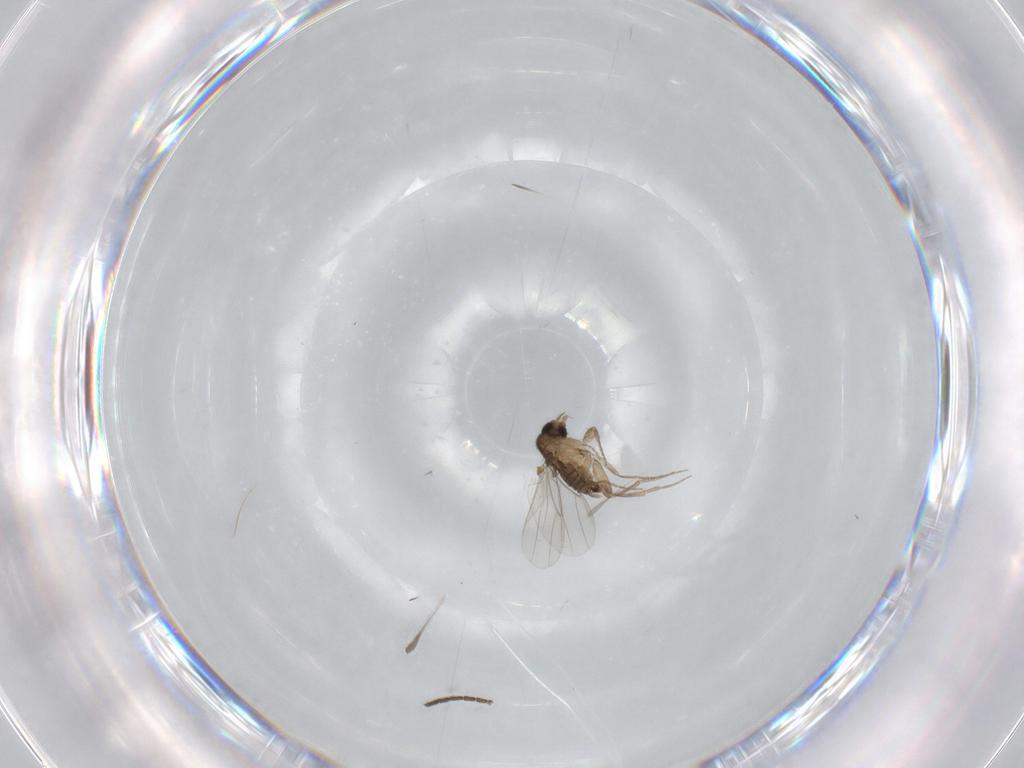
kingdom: Animalia
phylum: Arthropoda
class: Insecta
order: Diptera
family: Phoridae
